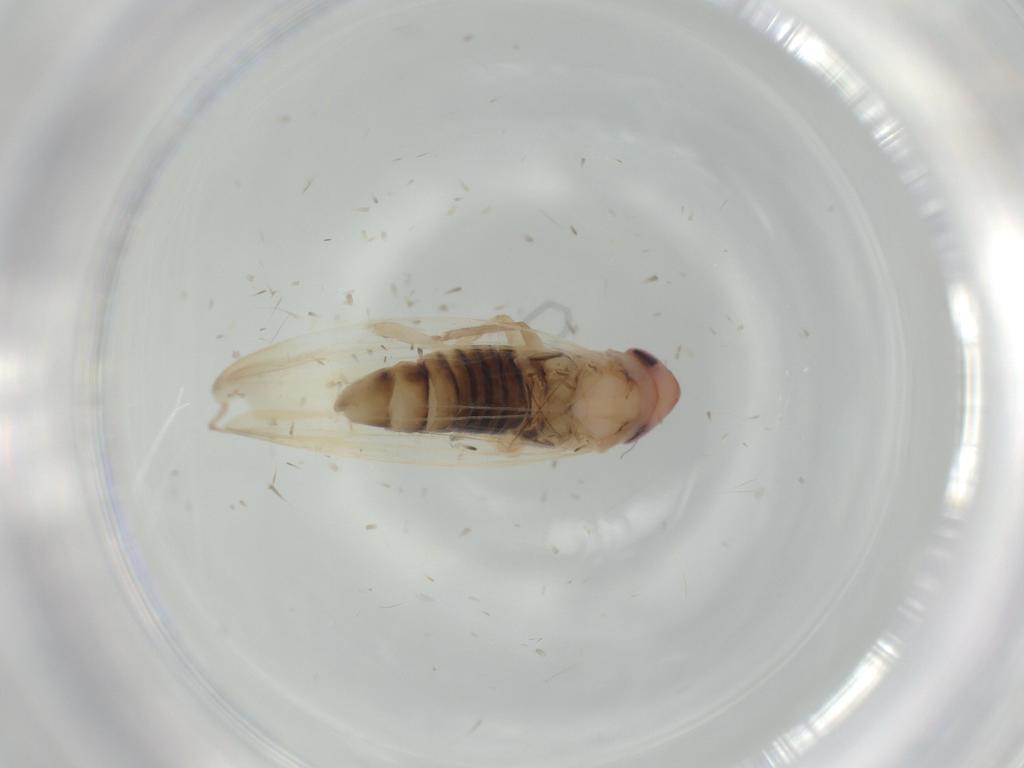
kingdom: Animalia
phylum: Arthropoda
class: Insecta
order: Hemiptera
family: Cicadellidae
